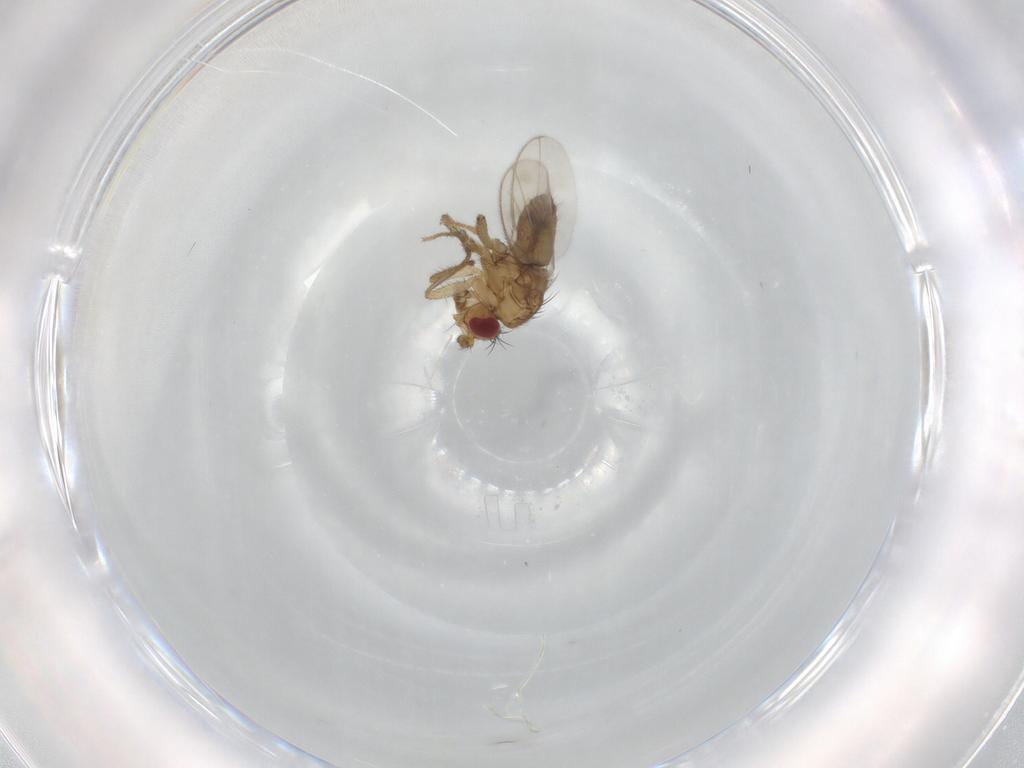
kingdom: Animalia
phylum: Arthropoda
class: Insecta
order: Diptera
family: Sphaeroceridae
